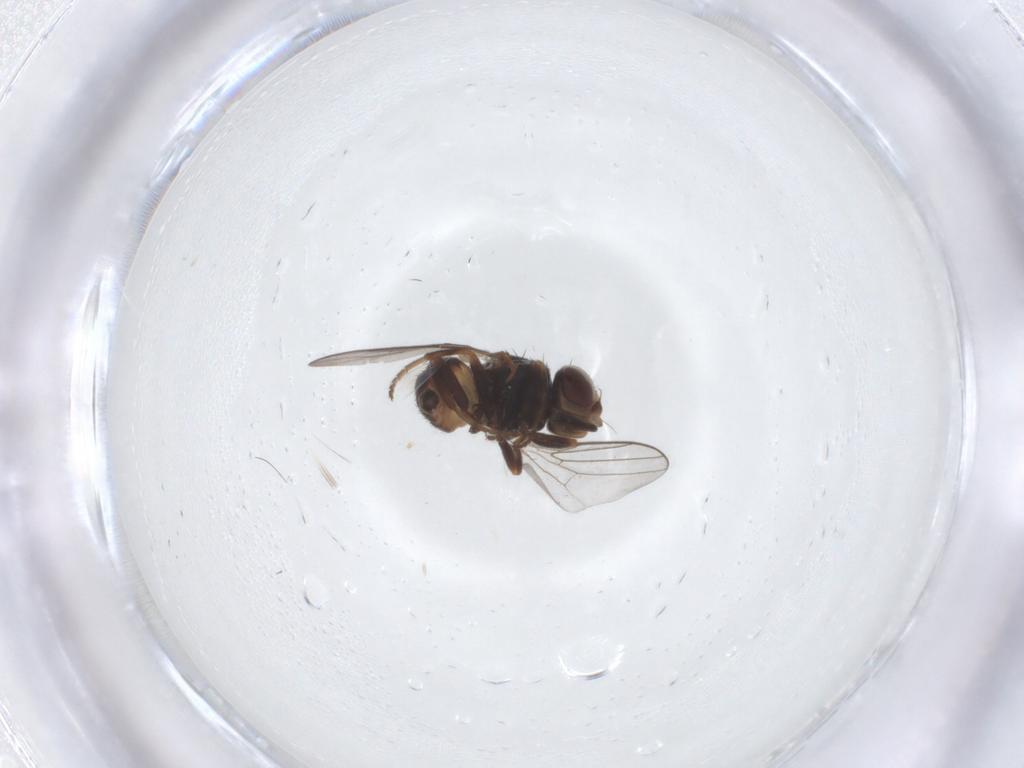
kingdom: Animalia
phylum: Arthropoda
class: Insecta
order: Diptera
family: Chloropidae
